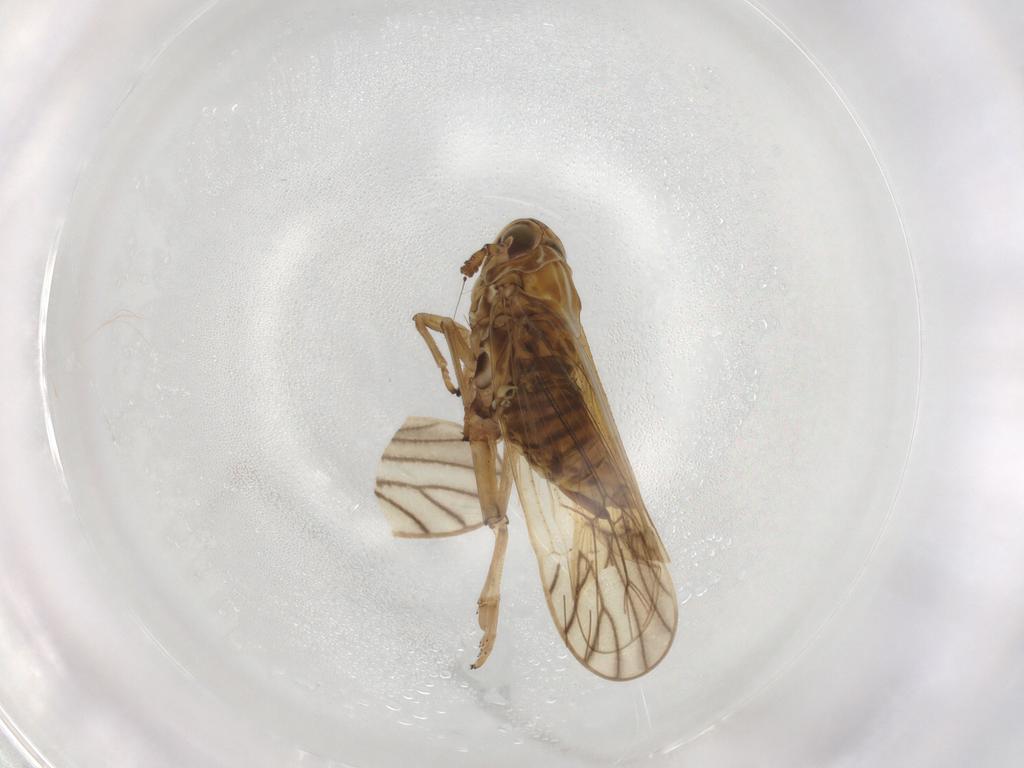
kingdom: Animalia
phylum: Arthropoda
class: Insecta
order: Hemiptera
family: Delphacidae
